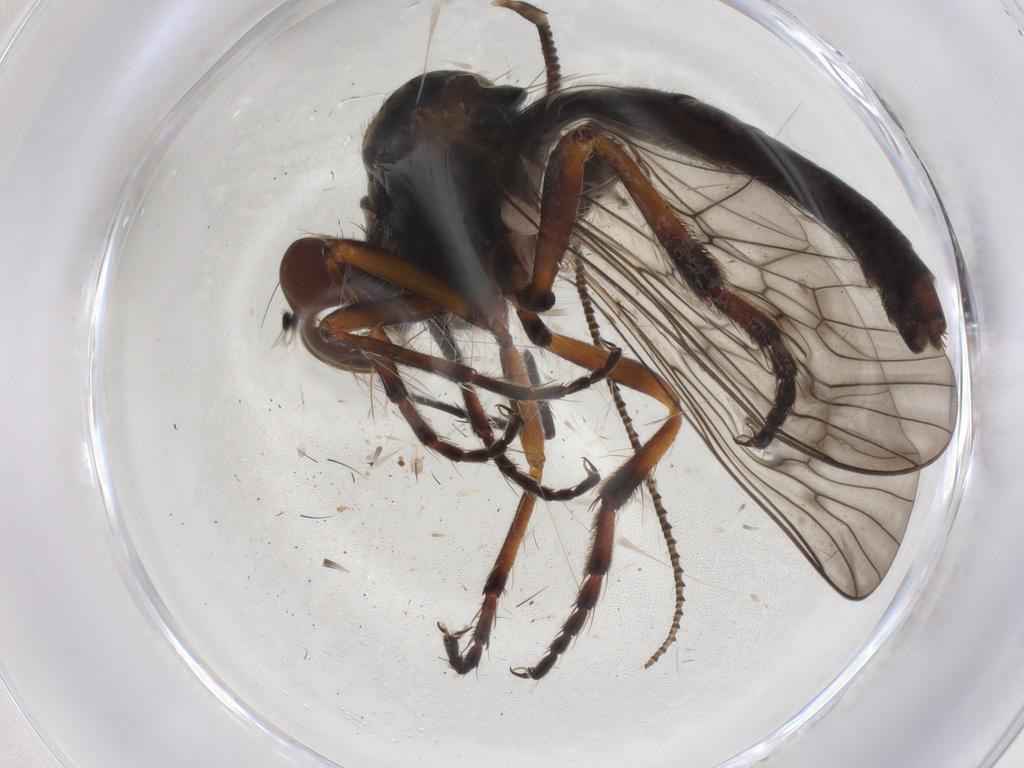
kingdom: Animalia
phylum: Arthropoda
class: Insecta
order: Diptera
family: Asilidae
